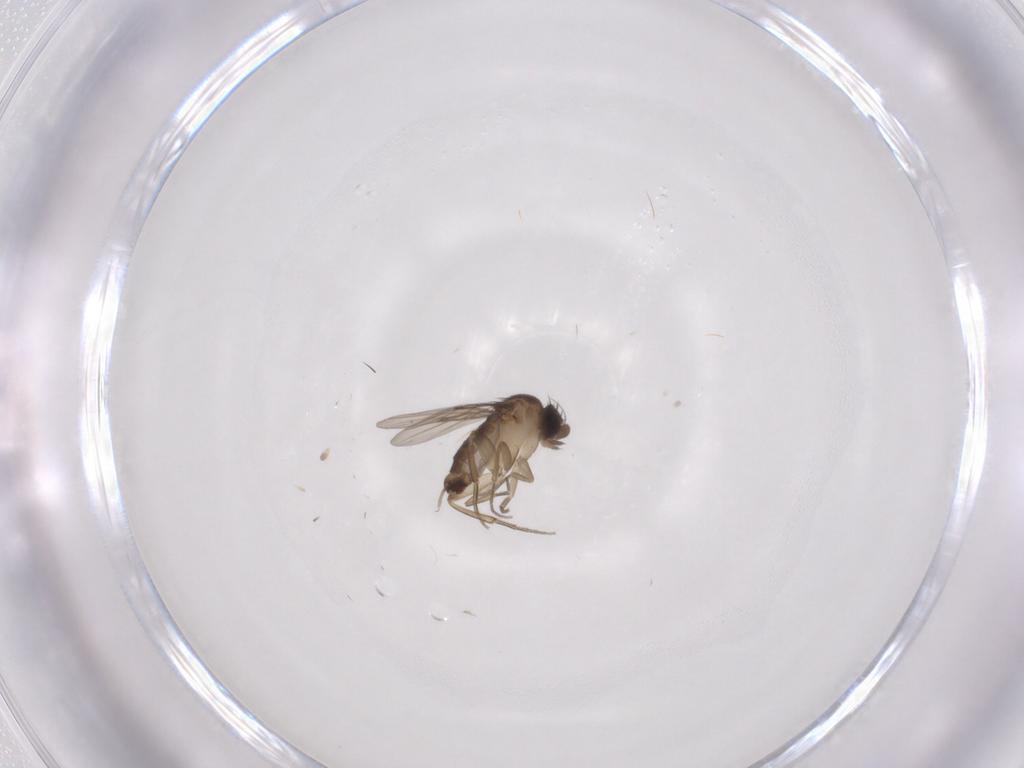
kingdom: Animalia
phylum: Arthropoda
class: Insecta
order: Diptera
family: Phoridae
